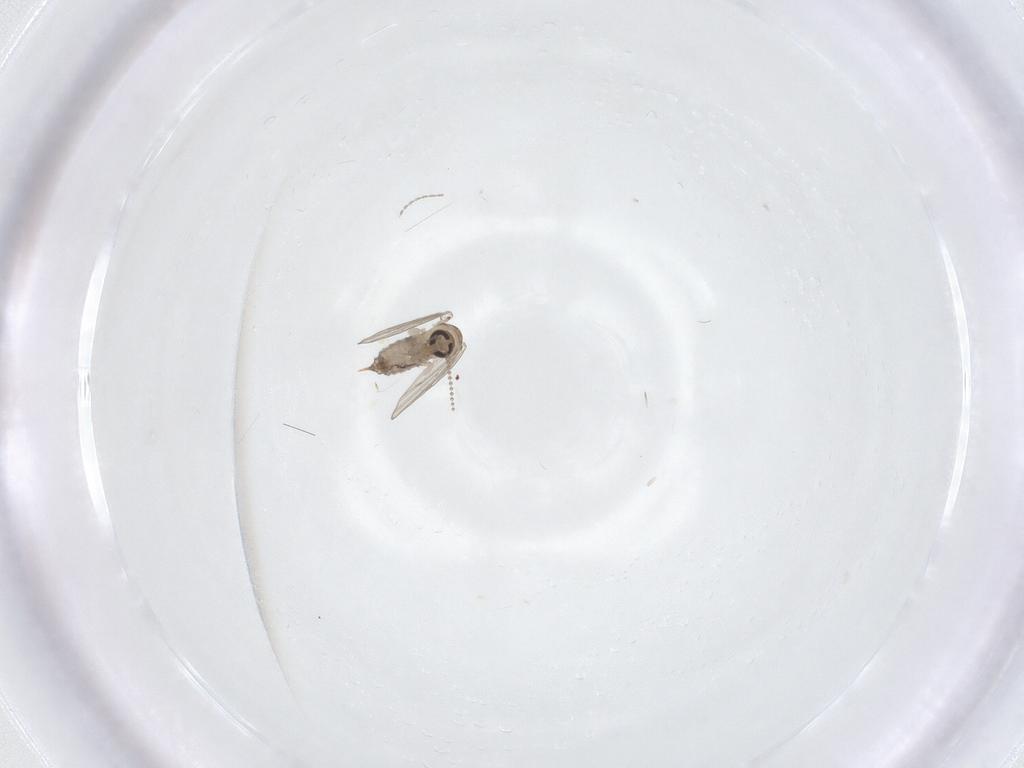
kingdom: Animalia
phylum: Arthropoda
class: Insecta
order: Diptera
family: Psychodidae
